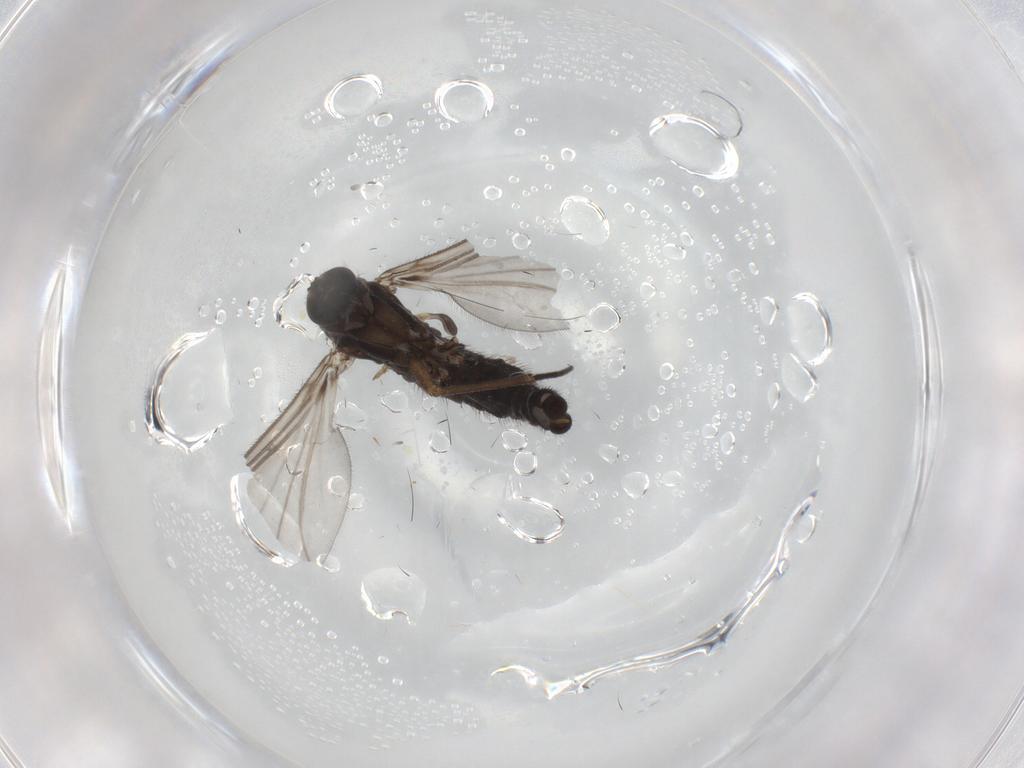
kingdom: Animalia
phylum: Arthropoda
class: Insecta
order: Diptera
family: Sciaridae
